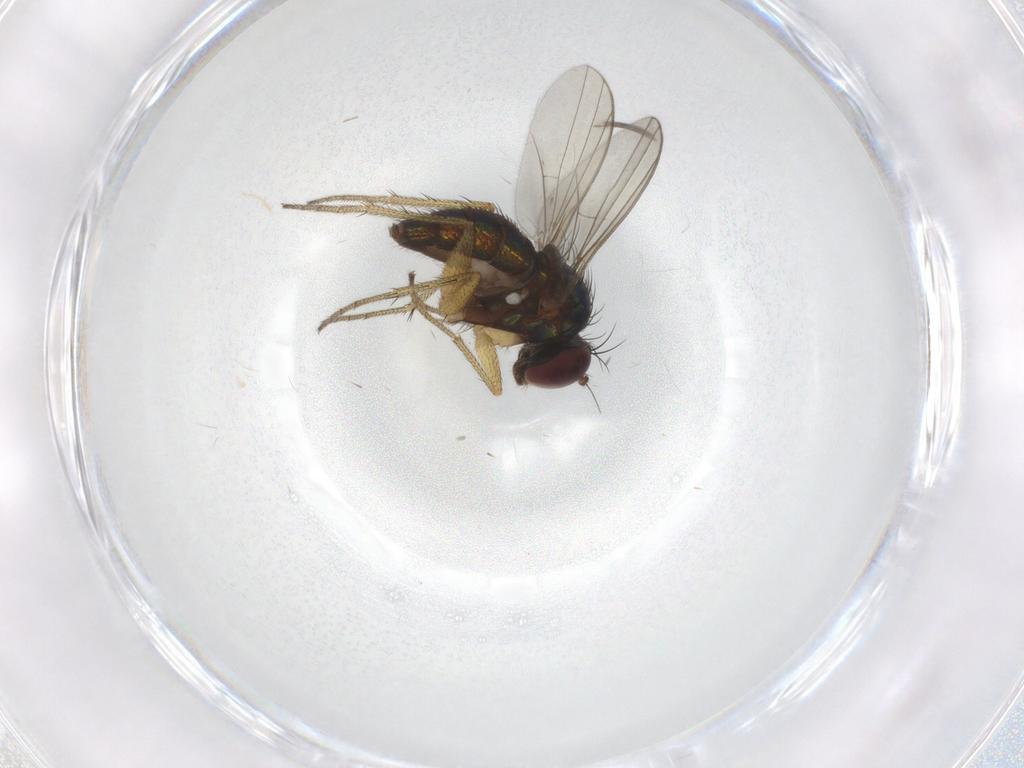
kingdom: Animalia
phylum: Arthropoda
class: Insecta
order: Diptera
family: Dolichopodidae
